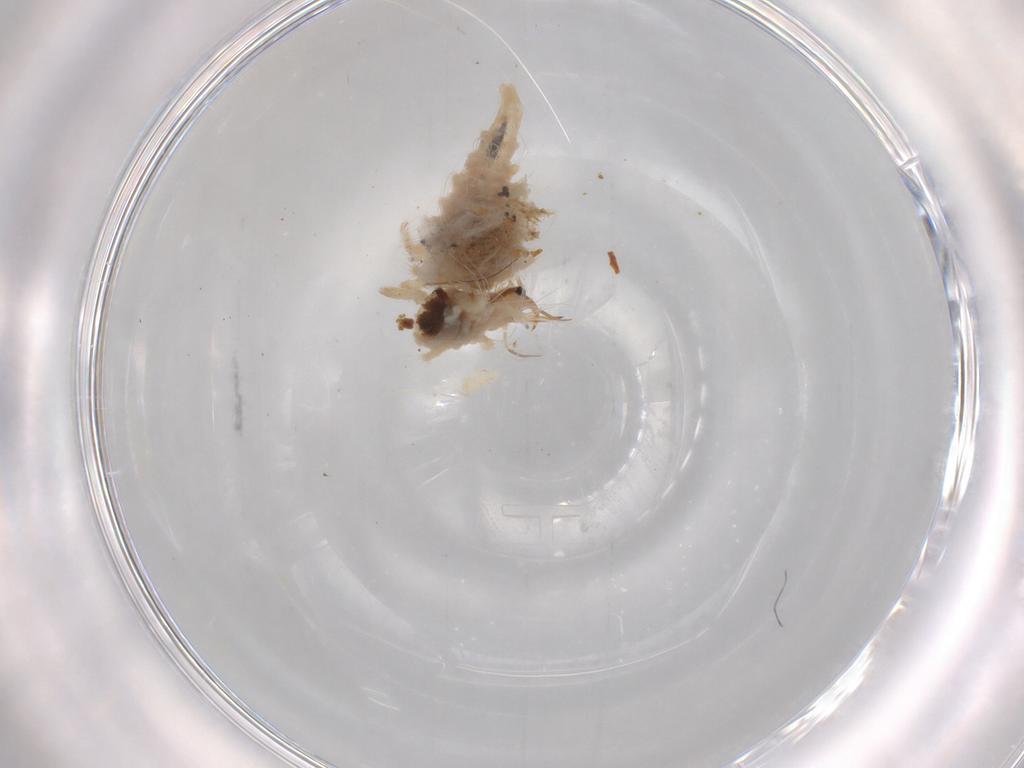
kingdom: Animalia
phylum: Arthropoda
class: Insecta
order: Neuroptera
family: Chrysopidae
